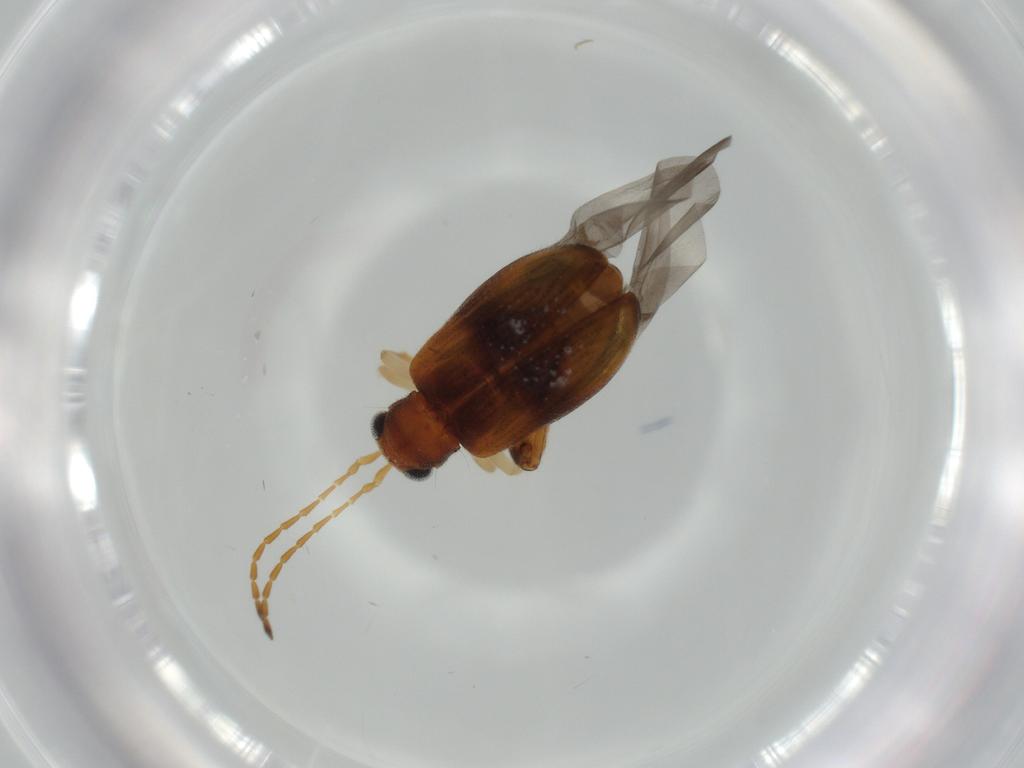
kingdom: Animalia
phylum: Arthropoda
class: Insecta
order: Coleoptera
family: Chrysomelidae
